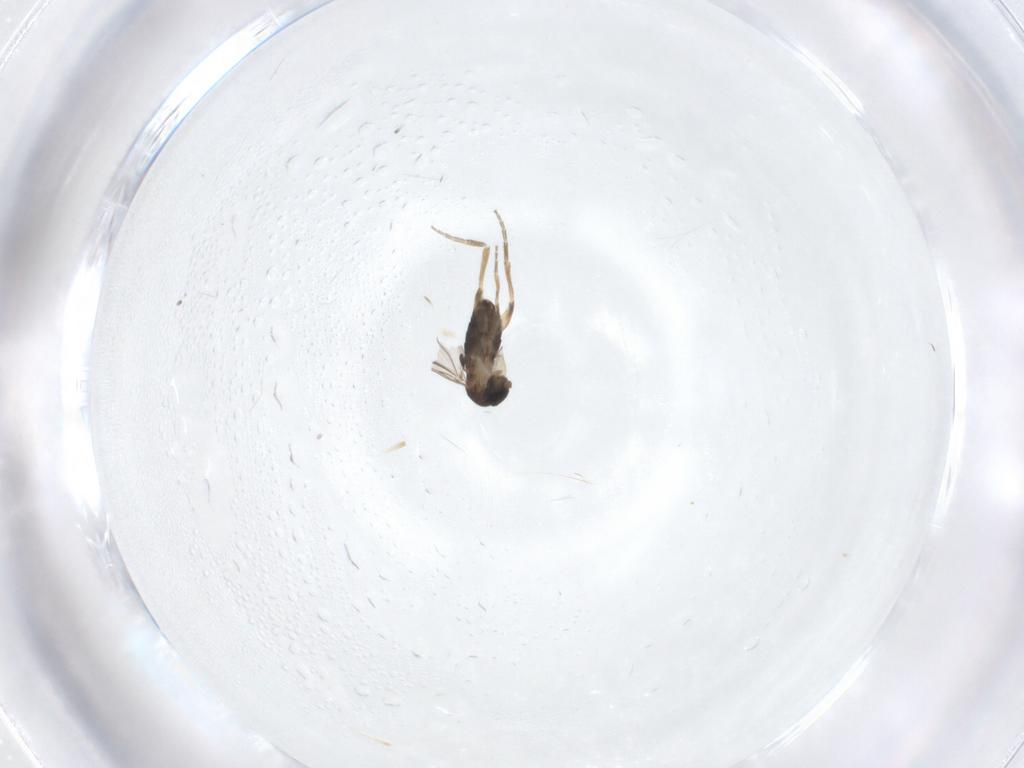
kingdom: Animalia
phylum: Arthropoda
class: Insecta
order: Diptera
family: Phoridae
